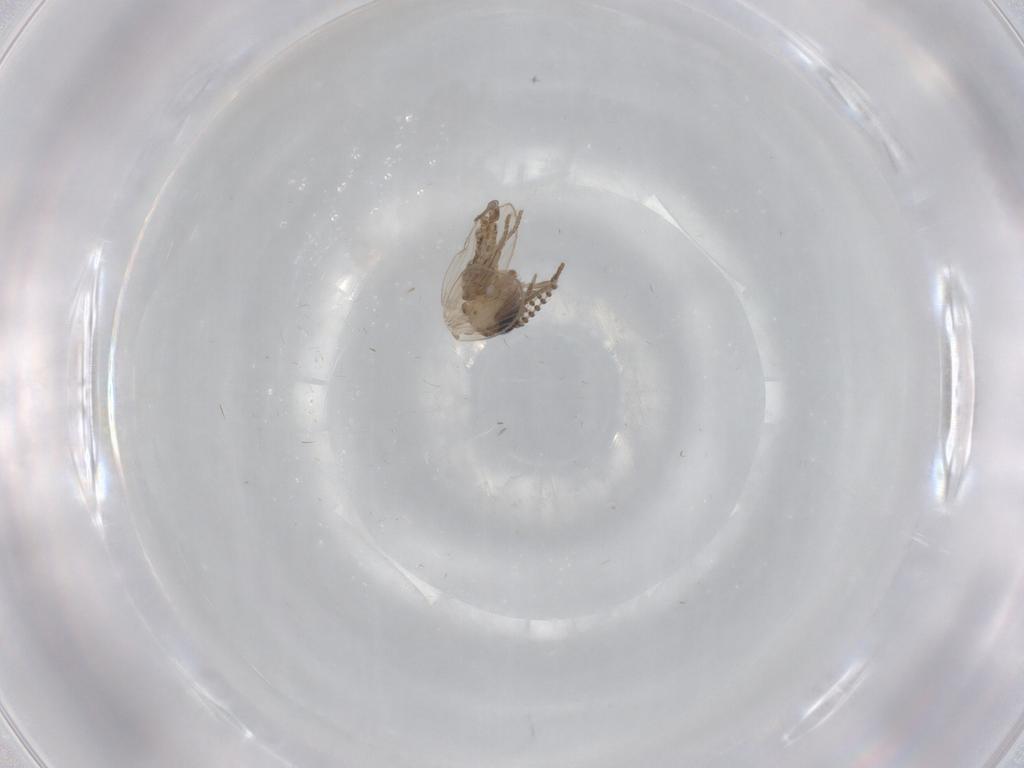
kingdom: Animalia
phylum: Arthropoda
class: Insecta
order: Diptera
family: Psychodidae
